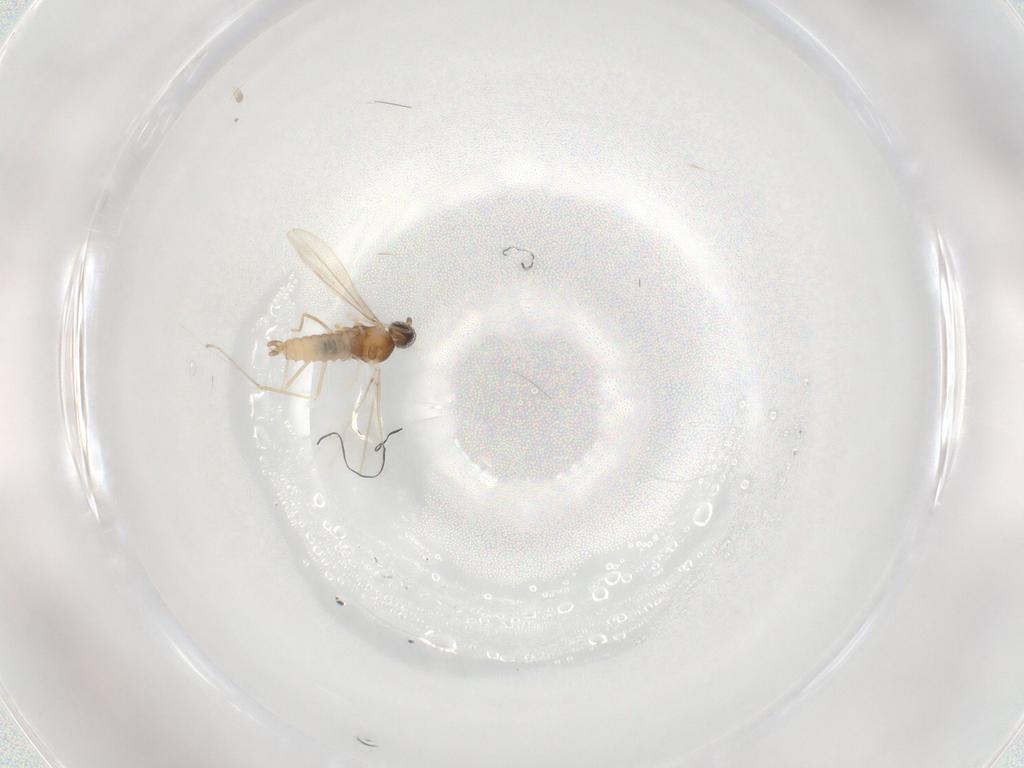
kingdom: Animalia
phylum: Arthropoda
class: Insecta
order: Diptera
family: Cecidomyiidae
